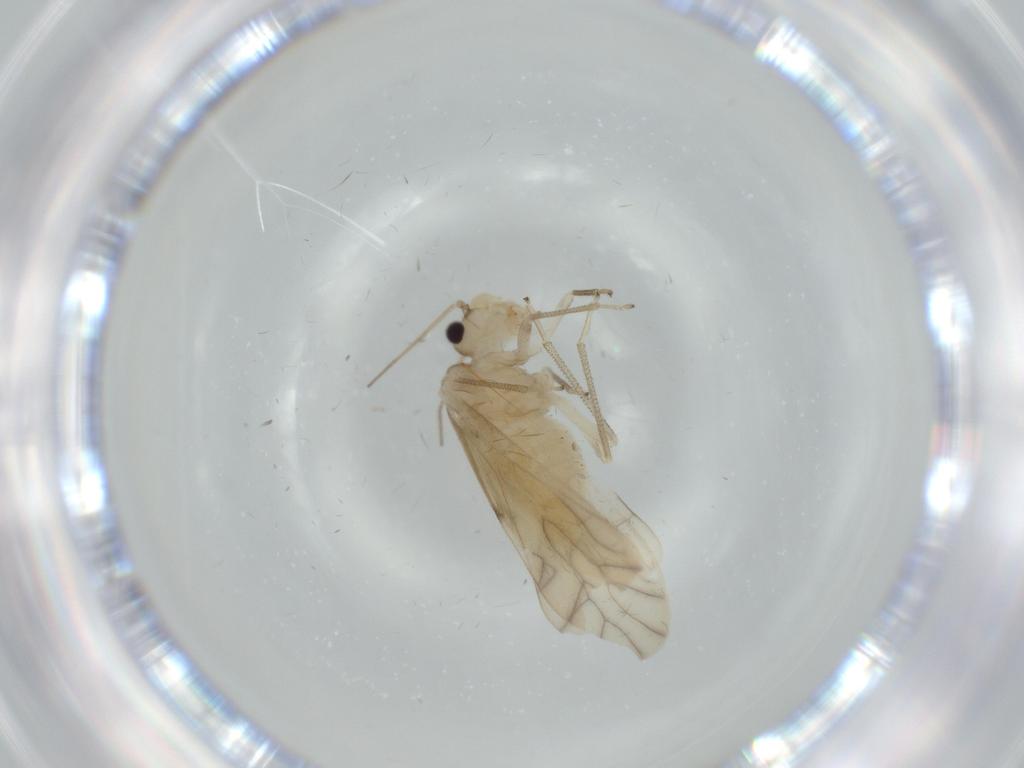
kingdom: Animalia
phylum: Arthropoda
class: Insecta
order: Psocodea
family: Caeciliusidae
